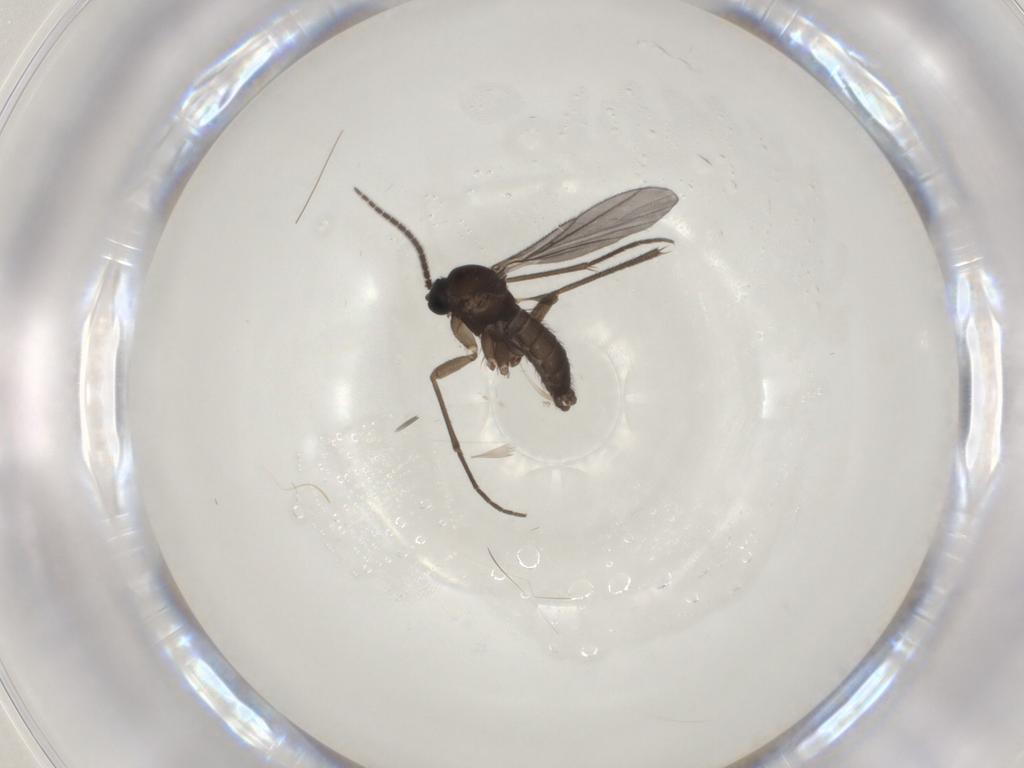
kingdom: Animalia
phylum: Arthropoda
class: Insecta
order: Diptera
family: Sciaridae
